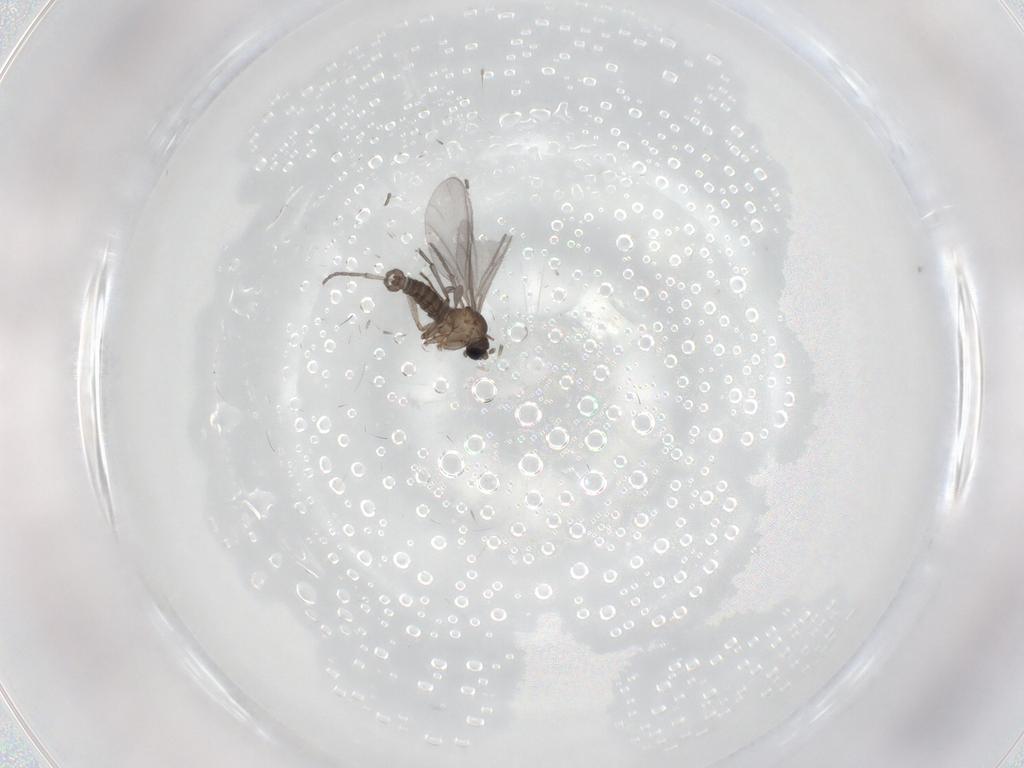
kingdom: Animalia
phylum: Arthropoda
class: Insecta
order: Diptera
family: Sciaridae
